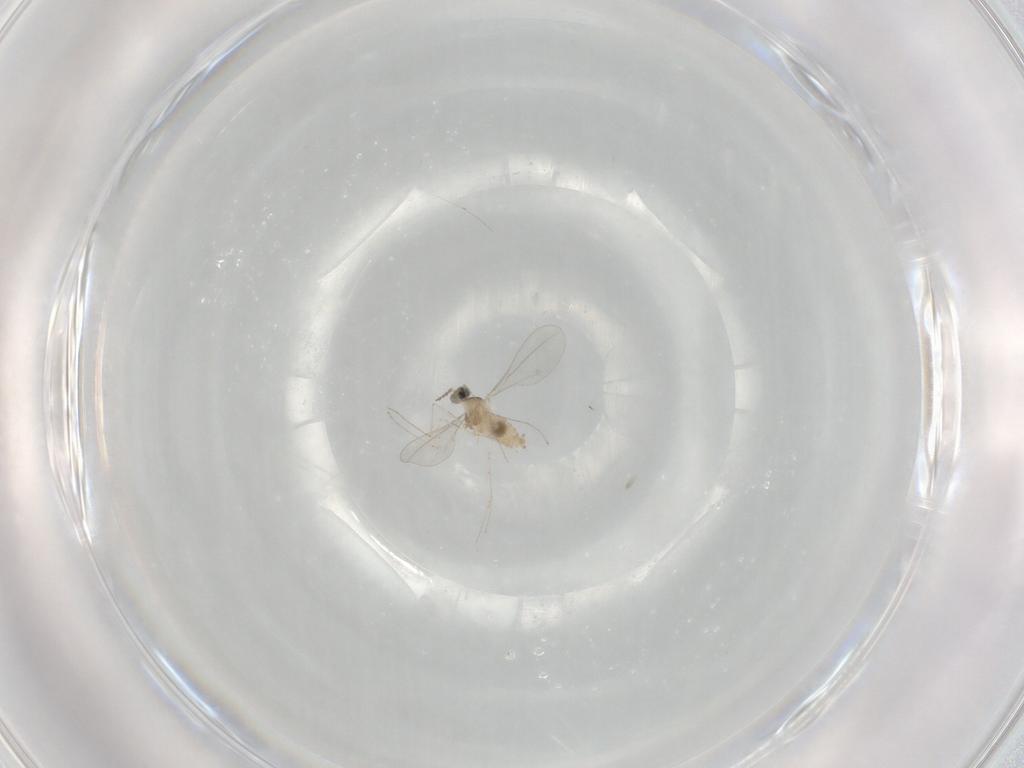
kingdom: Animalia
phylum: Arthropoda
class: Insecta
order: Diptera
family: Cecidomyiidae
